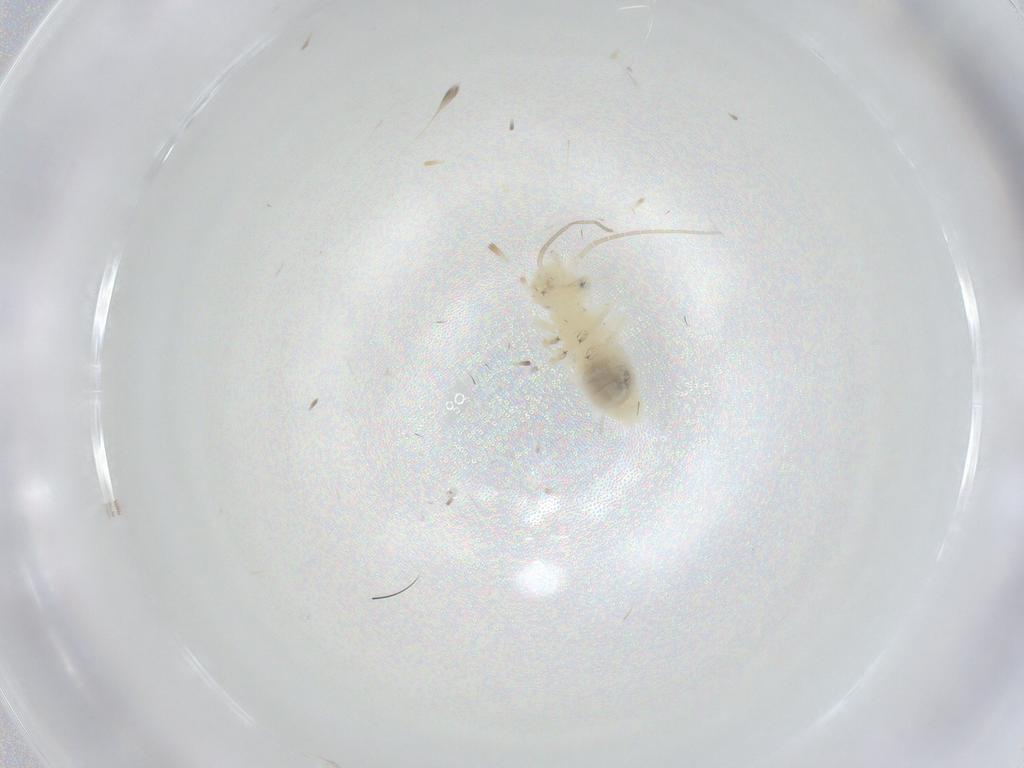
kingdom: Animalia
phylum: Arthropoda
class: Insecta
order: Psocodea
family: Caeciliusidae
